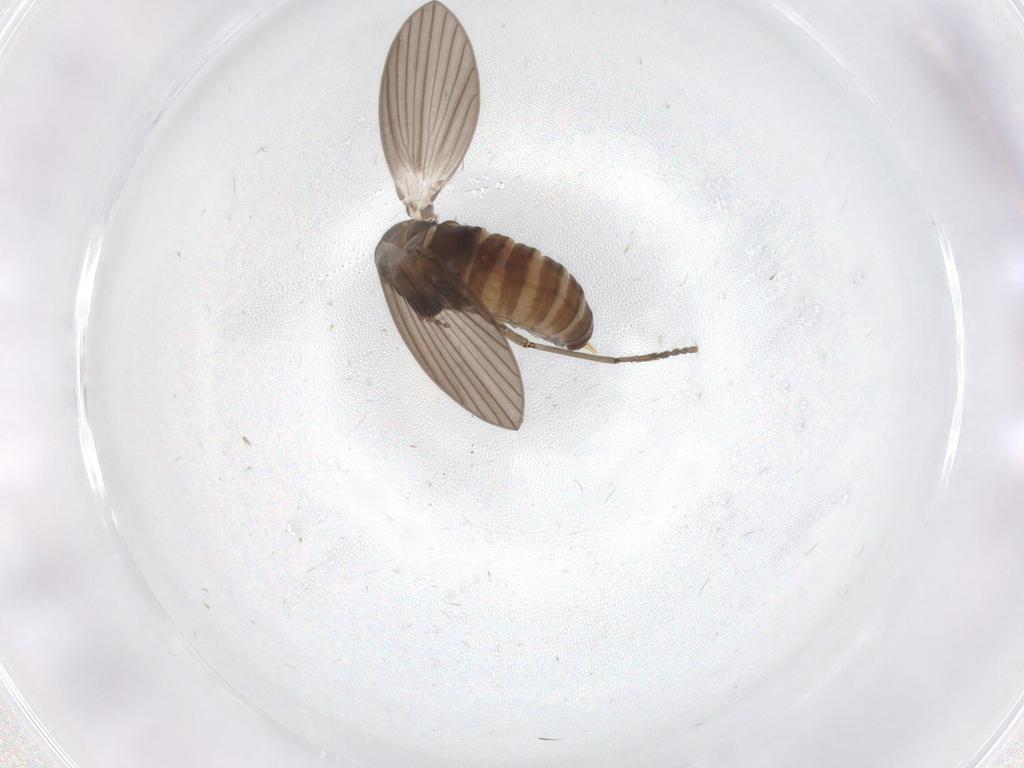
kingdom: Animalia
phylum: Arthropoda
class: Insecta
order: Diptera
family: Psychodidae
